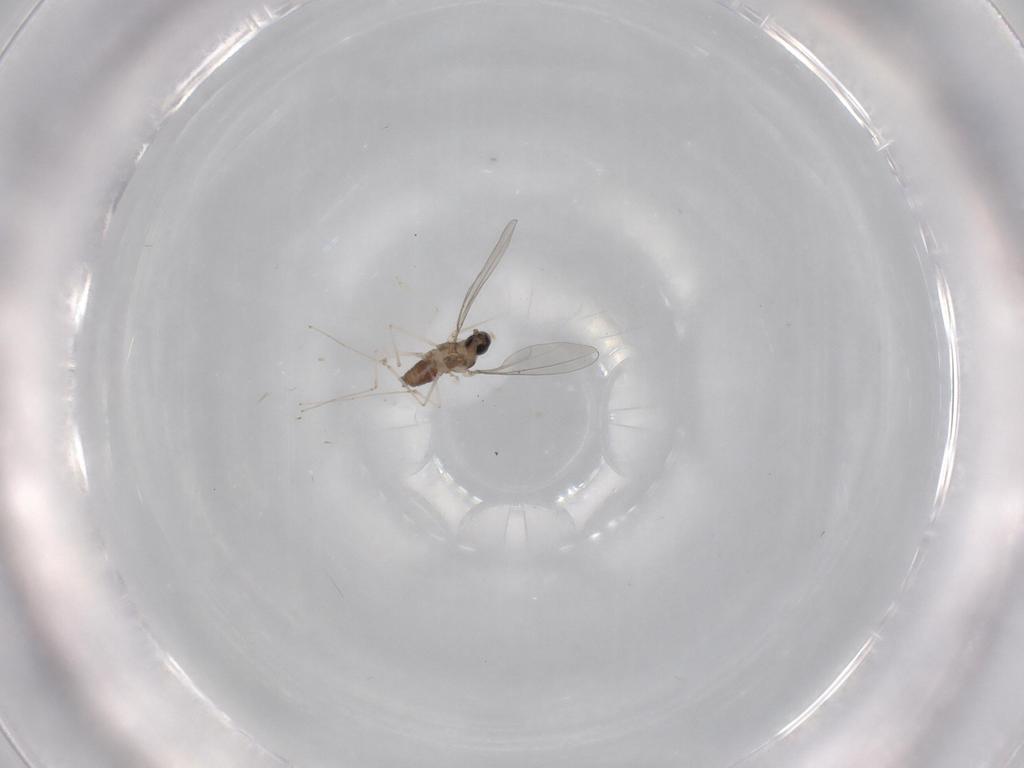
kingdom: Animalia
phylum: Arthropoda
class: Insecta
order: Diptera
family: Cecidomyiidae
